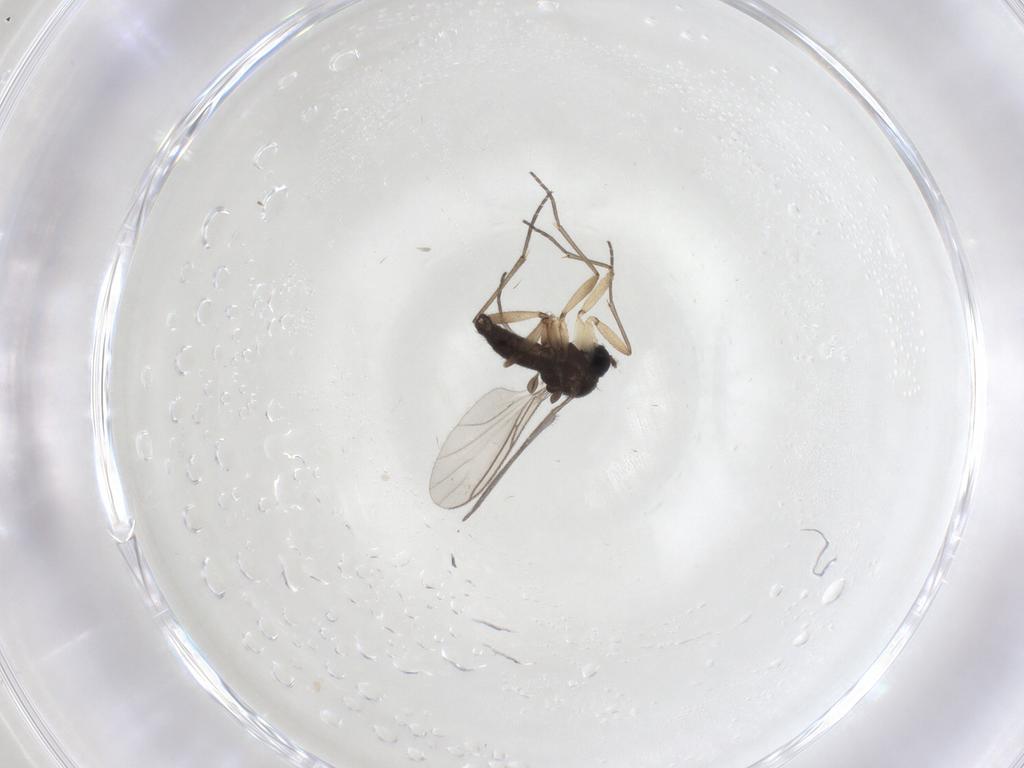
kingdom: Animalia
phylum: Arthropoda
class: Insecta
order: Diptera
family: Sciaridae
